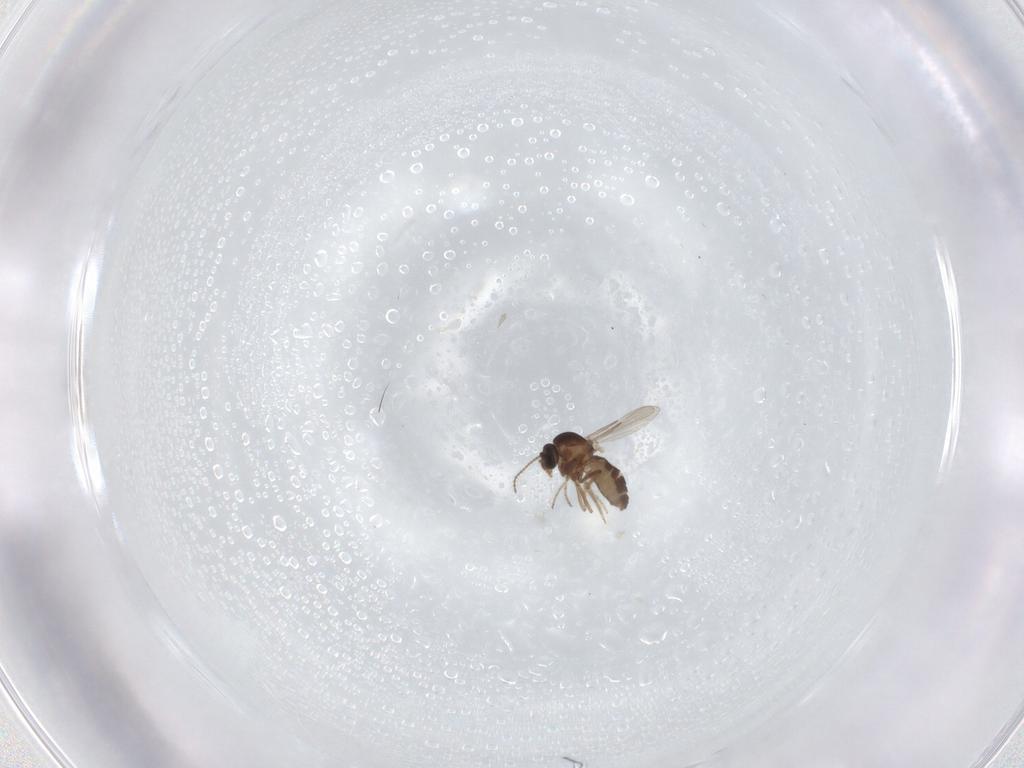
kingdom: Animalia
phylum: Arthropoda
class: Insecta
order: Diptera
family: Ceratopogonidae
